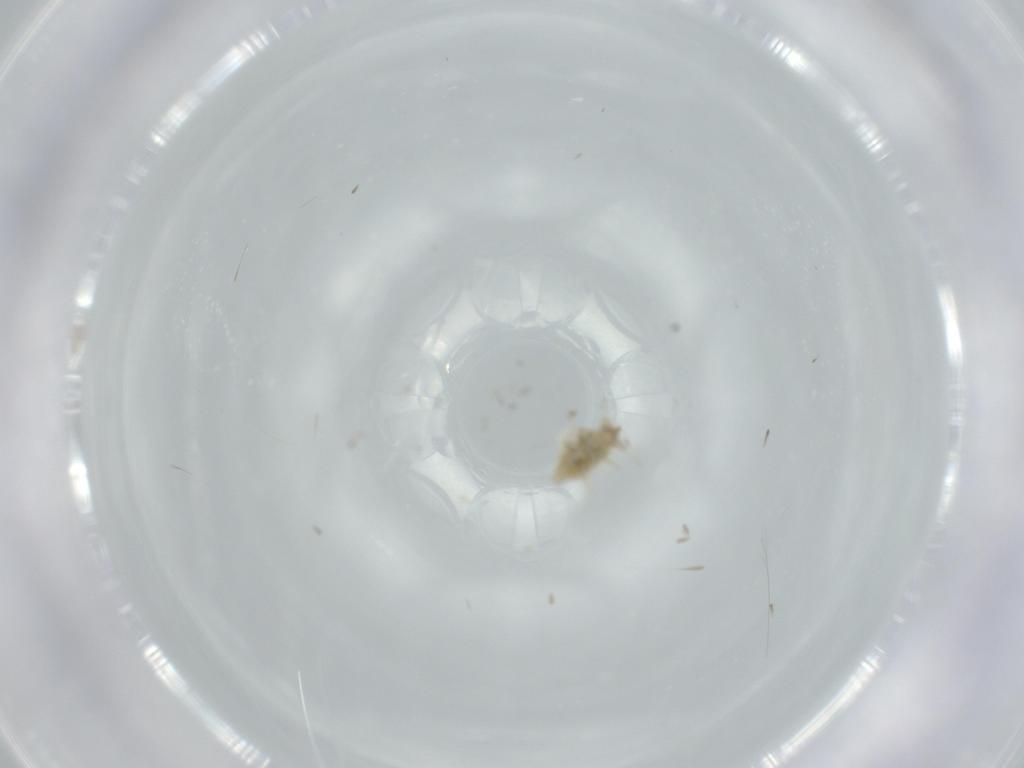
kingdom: Animalia
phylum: Arthropoda
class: Insecta
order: Neuroptera
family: Coniopterygidae
